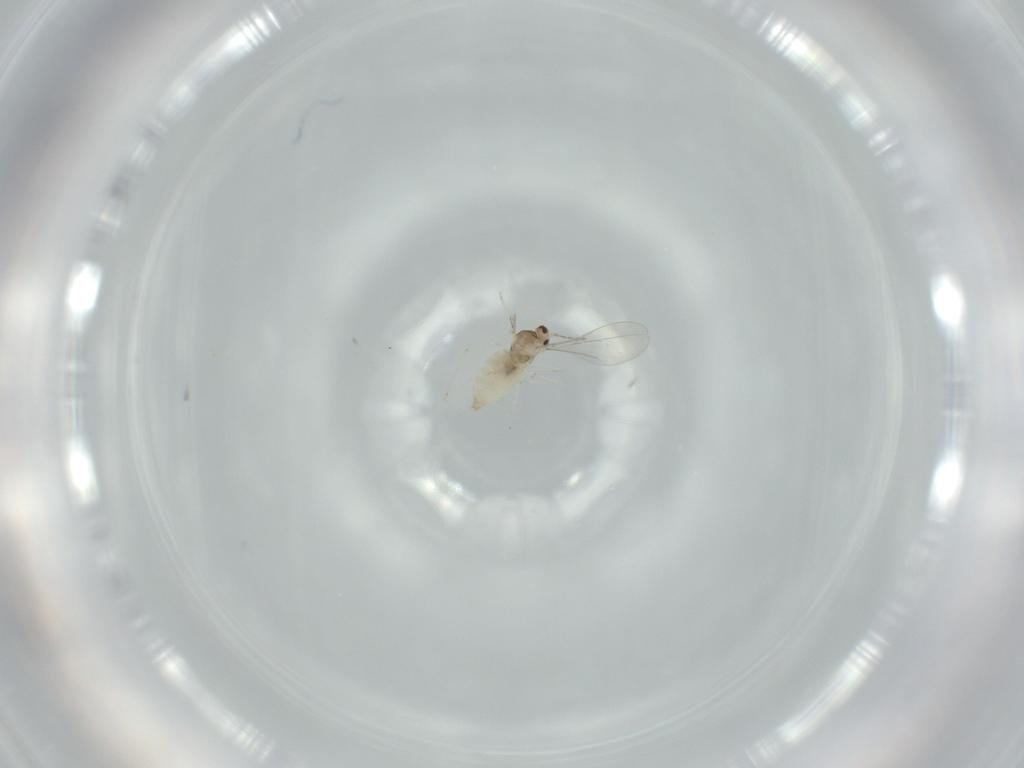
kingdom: Animalia
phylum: Arthropoda
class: Insecta
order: Diptera
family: Cecidomyiidae
